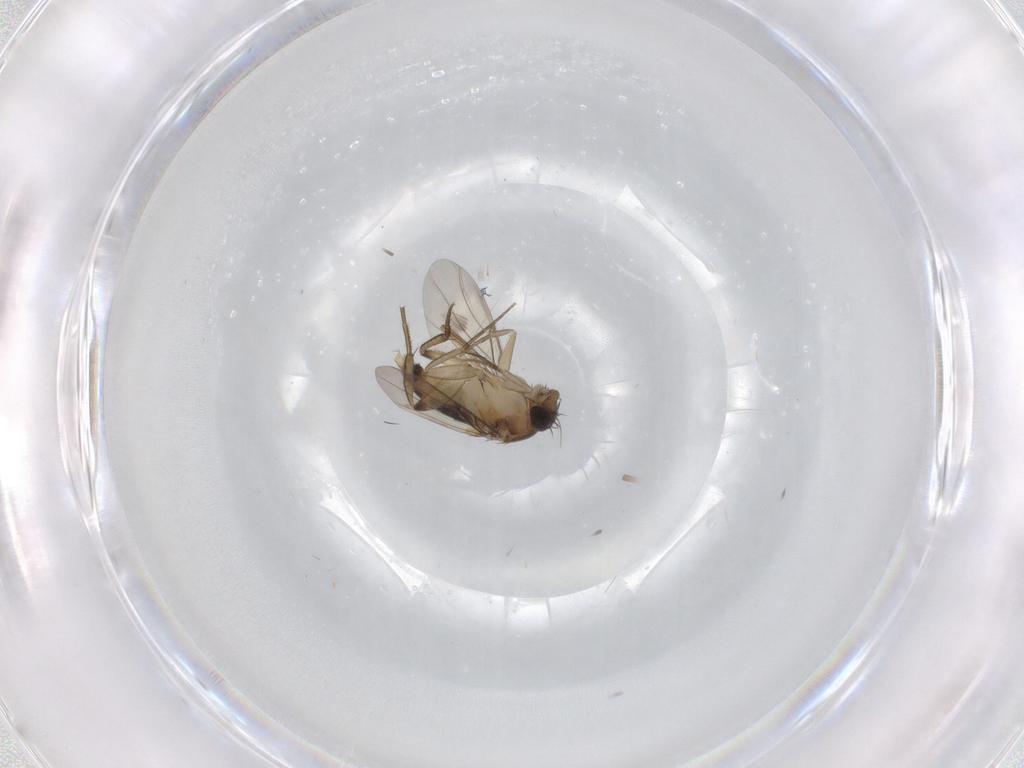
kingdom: Animalia
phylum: Arthropoda
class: Insecta
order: Diptera
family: Phoridae
